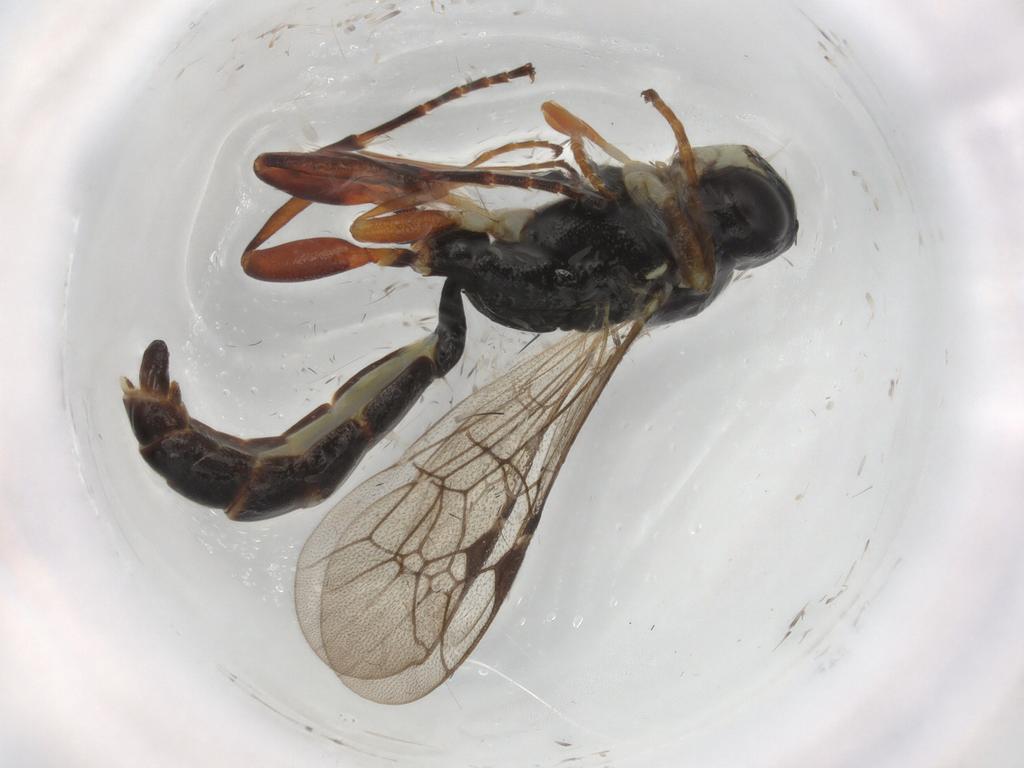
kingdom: Animalia
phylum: Arthropoda
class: Insecta
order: Hymenoptera
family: Ichneumonidae
